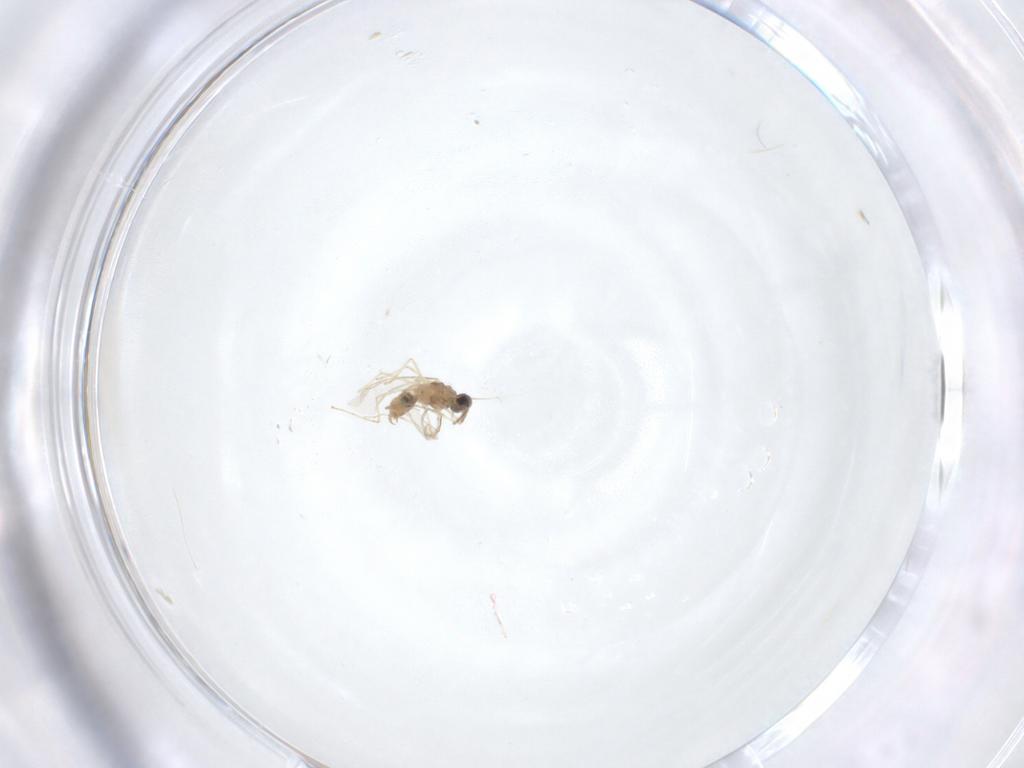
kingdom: Animalia
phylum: Arthropoda
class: Insecta
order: Diptera
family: Cecidomyiidae
